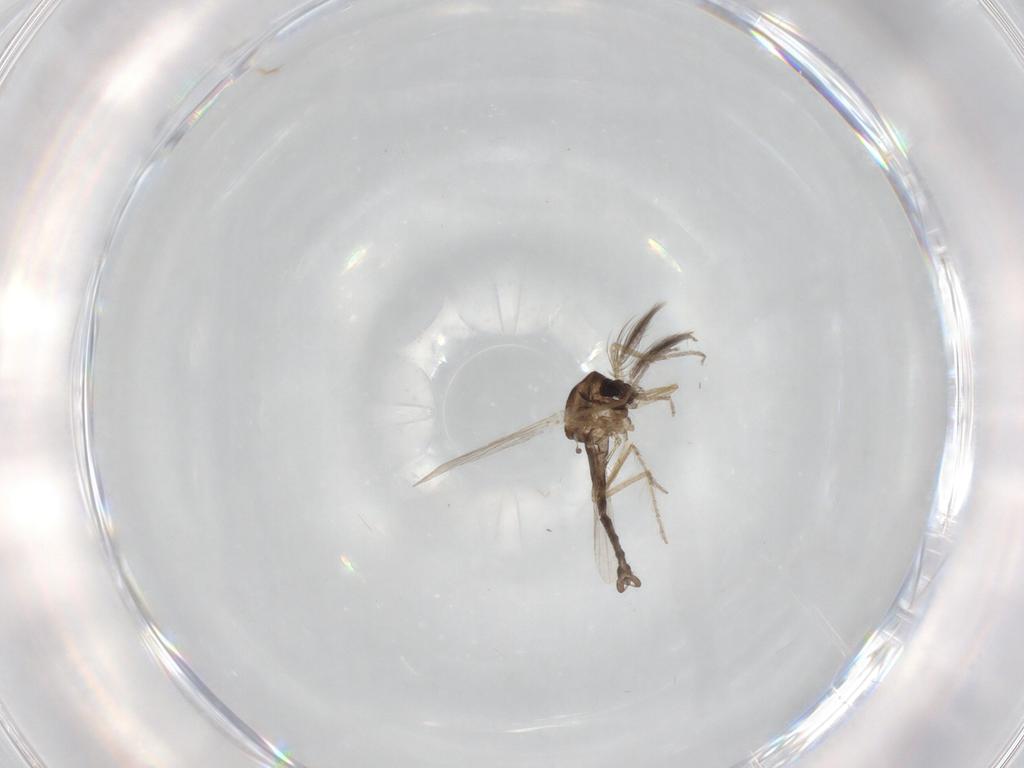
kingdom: Animalia
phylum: Arthropoda
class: Insecta
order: Diptera
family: Ceratopogonidae
